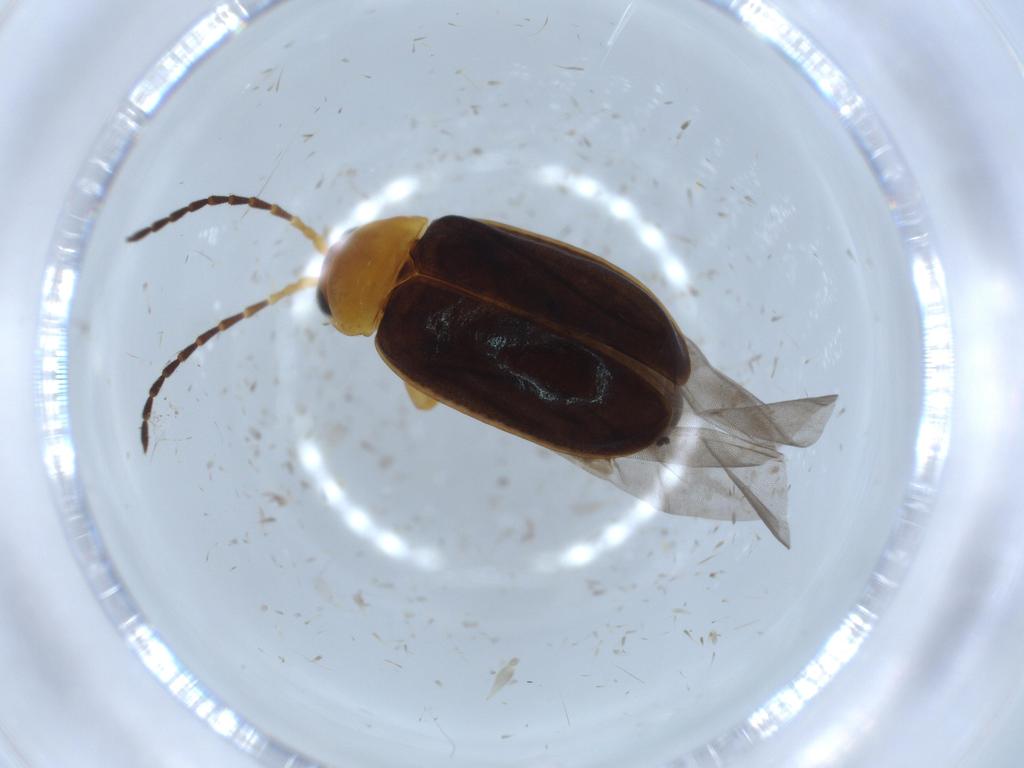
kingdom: Animalia
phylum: Arthropoda
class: Insecta
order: Coleoptera
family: Chrysomelidae
